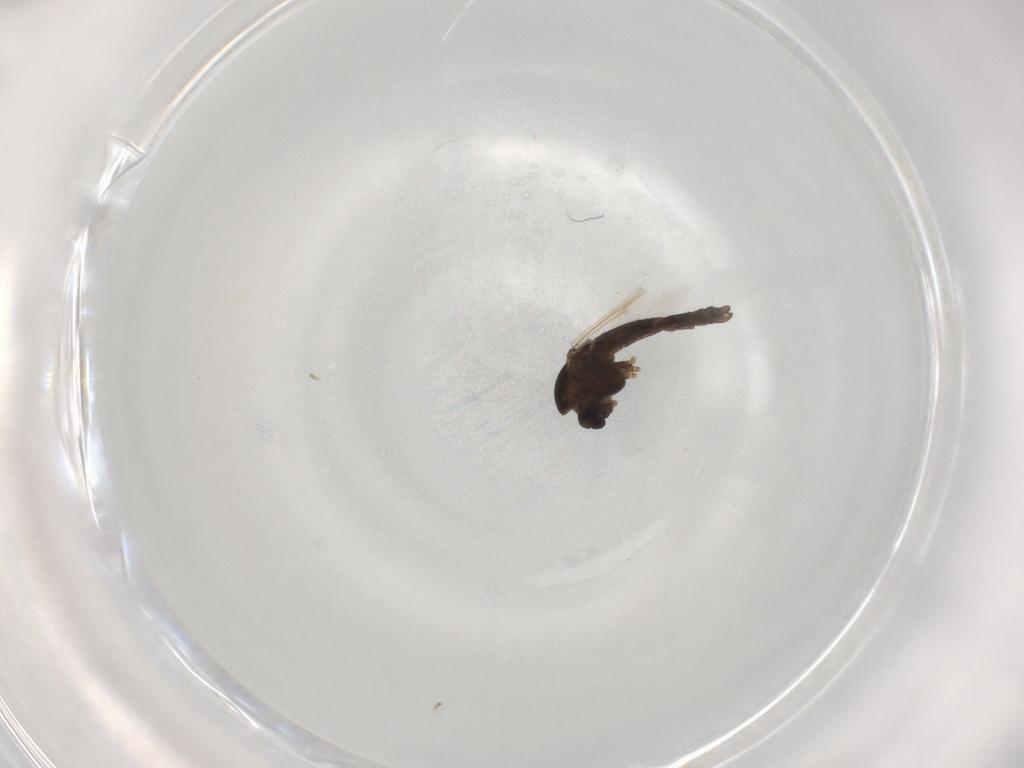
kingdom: Animalia
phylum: Arthropoda
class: Insecta
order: Diptera
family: Chironomidae
